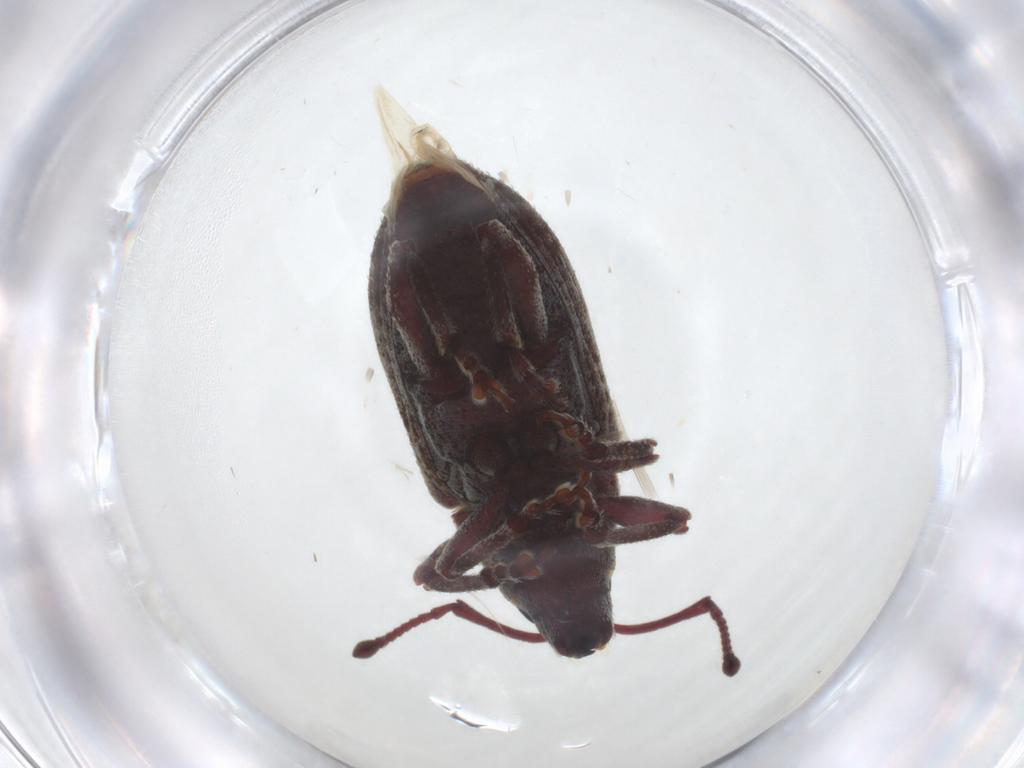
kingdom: Animalia
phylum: Arthropoda
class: Insecta
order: Coleoptera
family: Curculionidae
